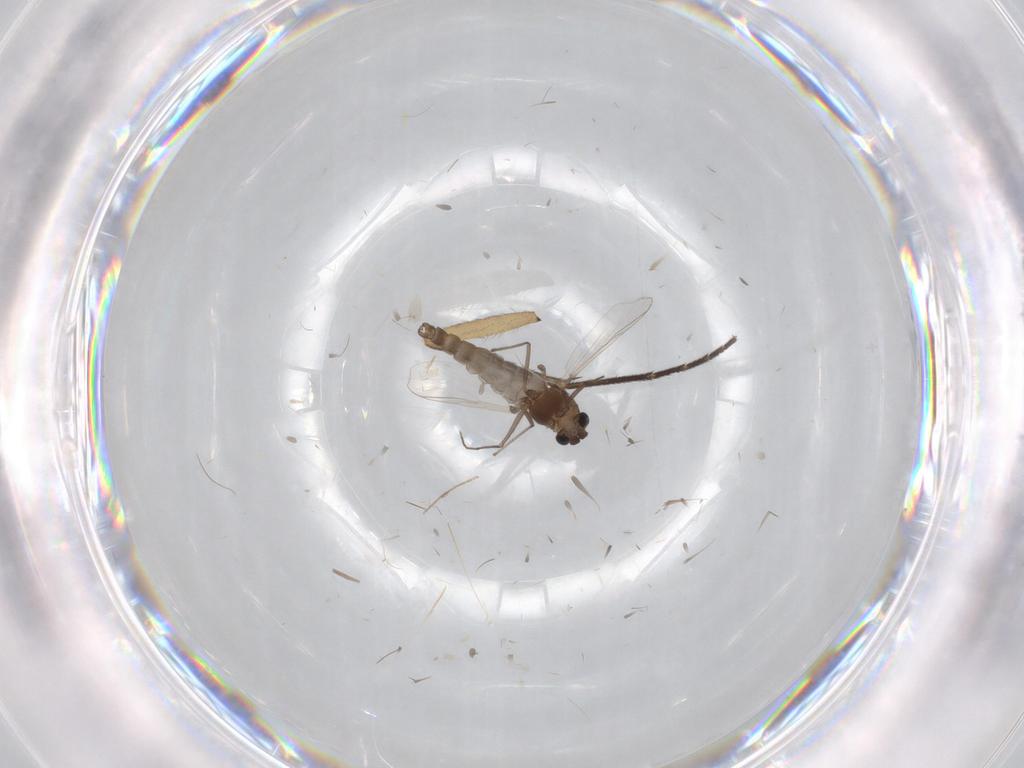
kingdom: Animalia
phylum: Arthropoda
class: Insecta
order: Diptera
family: Chironomidae
